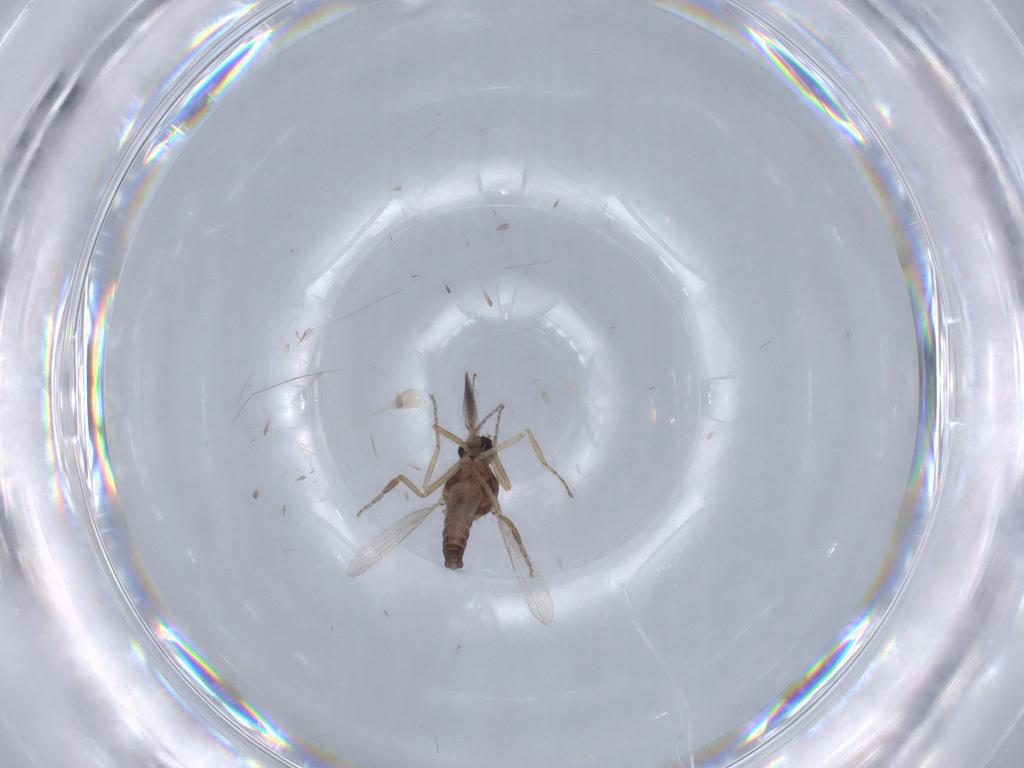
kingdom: Animalia
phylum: Arthropoda
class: Insecta
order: Diptera
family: Ceratopogonidae
